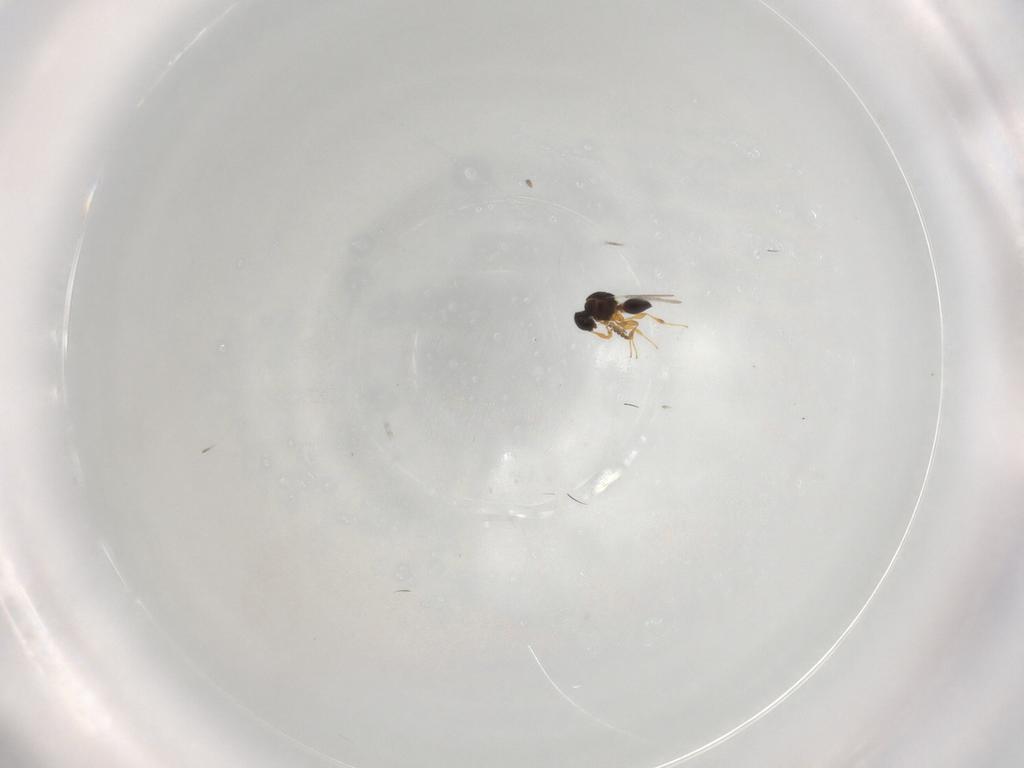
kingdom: Animalia
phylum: Arthropoda
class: Insecta
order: Hymenoptera
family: Platygastridae
